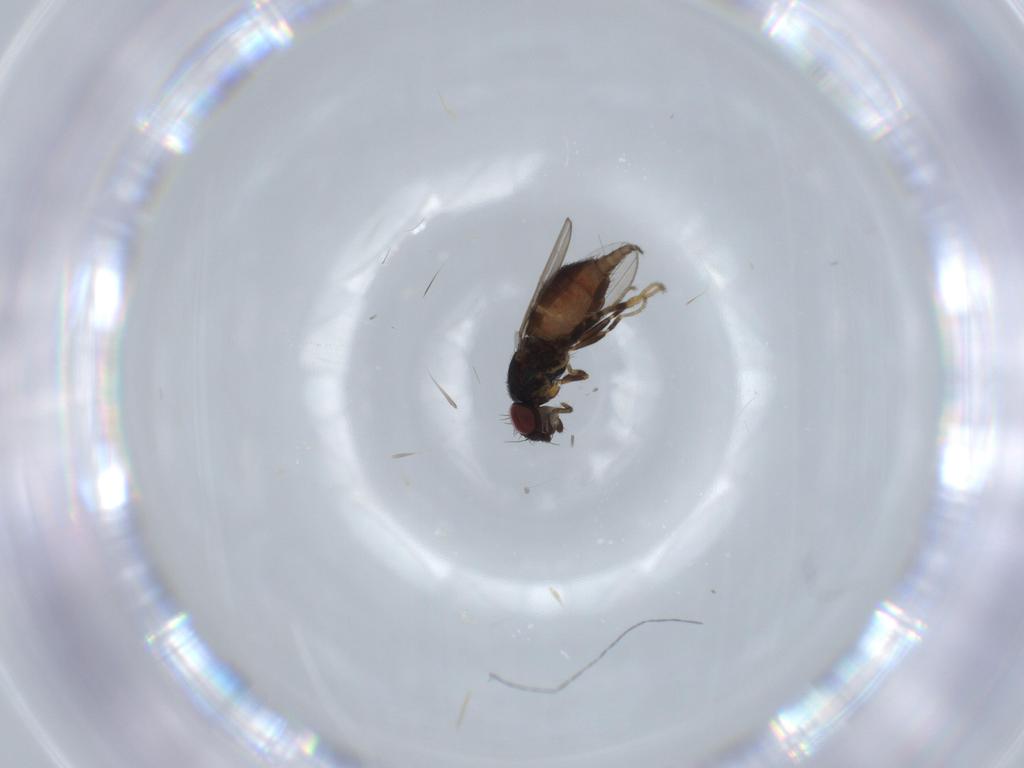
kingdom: Animalia
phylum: Arthropoda
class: Insecta
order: Diptera
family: Milichiidae
